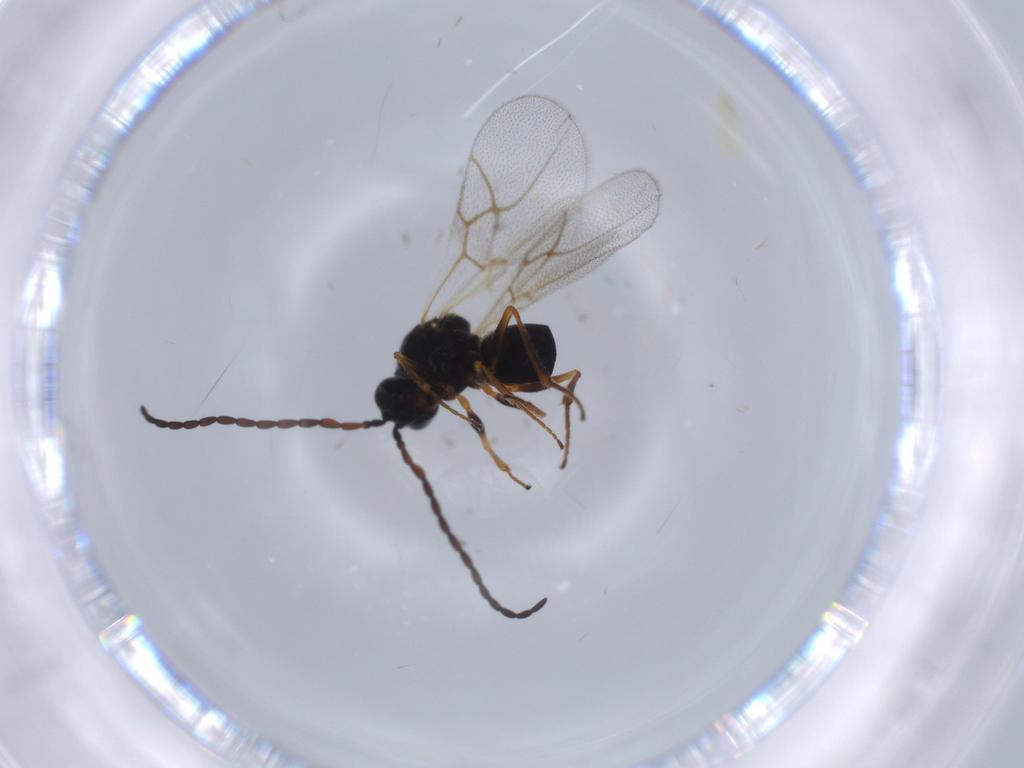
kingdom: Animalia
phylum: Arthropoda
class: Insecta
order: Hymenoptera
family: Figitidae
